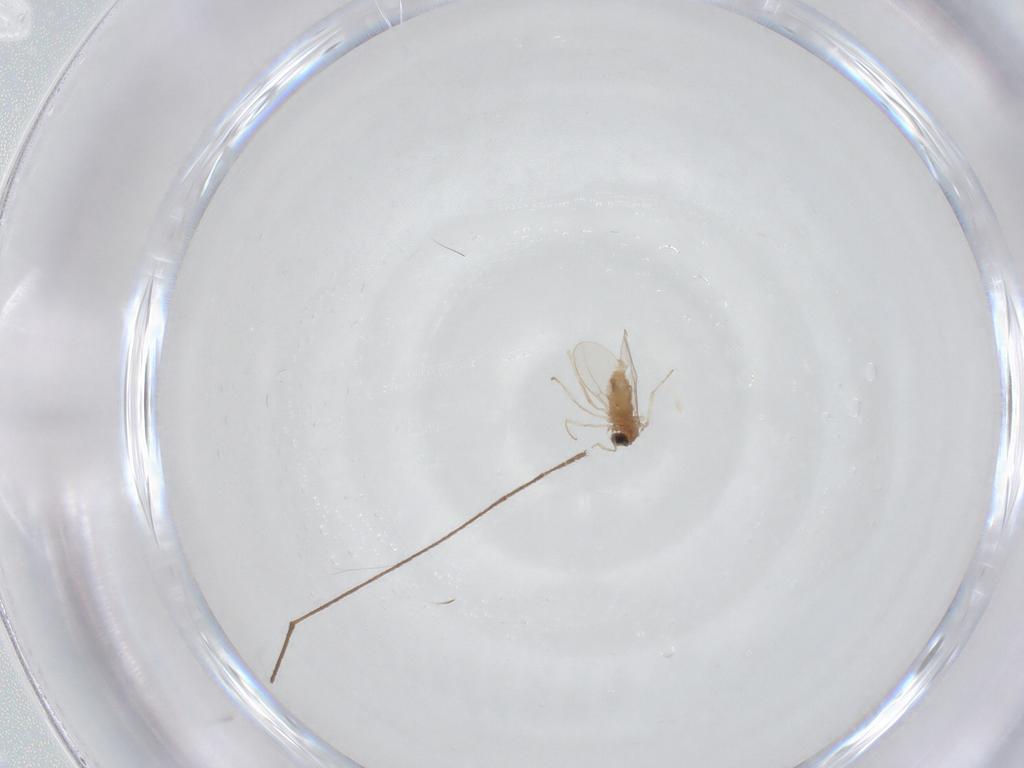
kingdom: Animalia
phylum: Arthropoda
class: Insecta
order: Diptera
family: Cecidomyiidae
